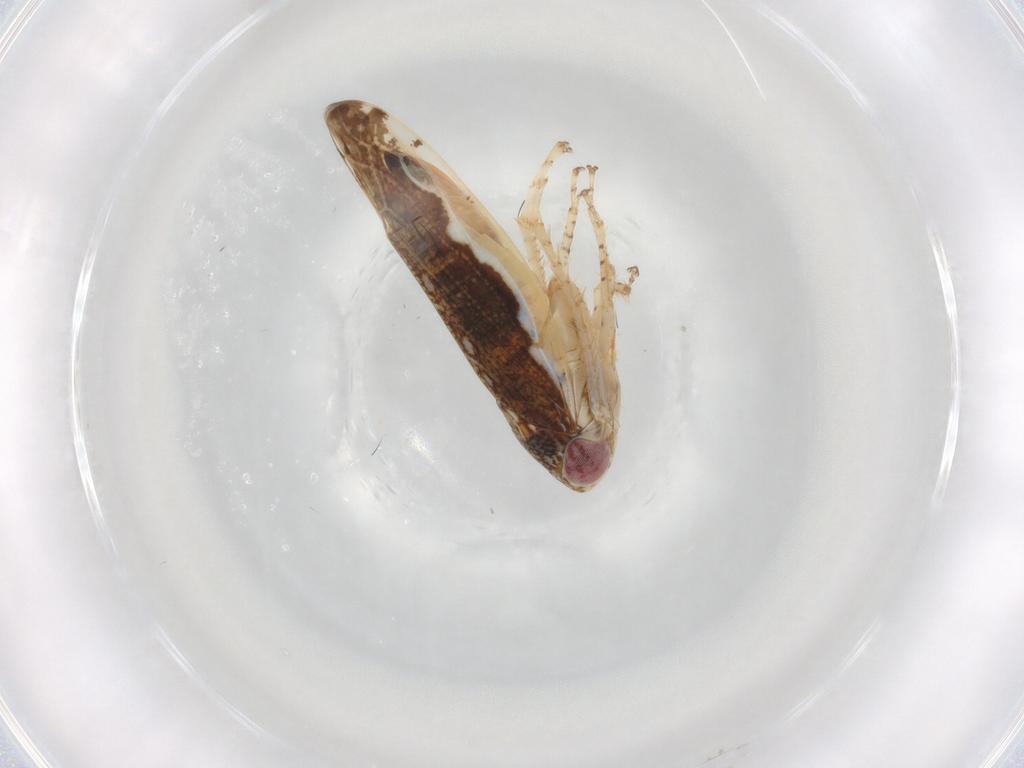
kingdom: Animalia
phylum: Arthropoda
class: Insecta
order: Hemiptera
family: Cicadellidae
